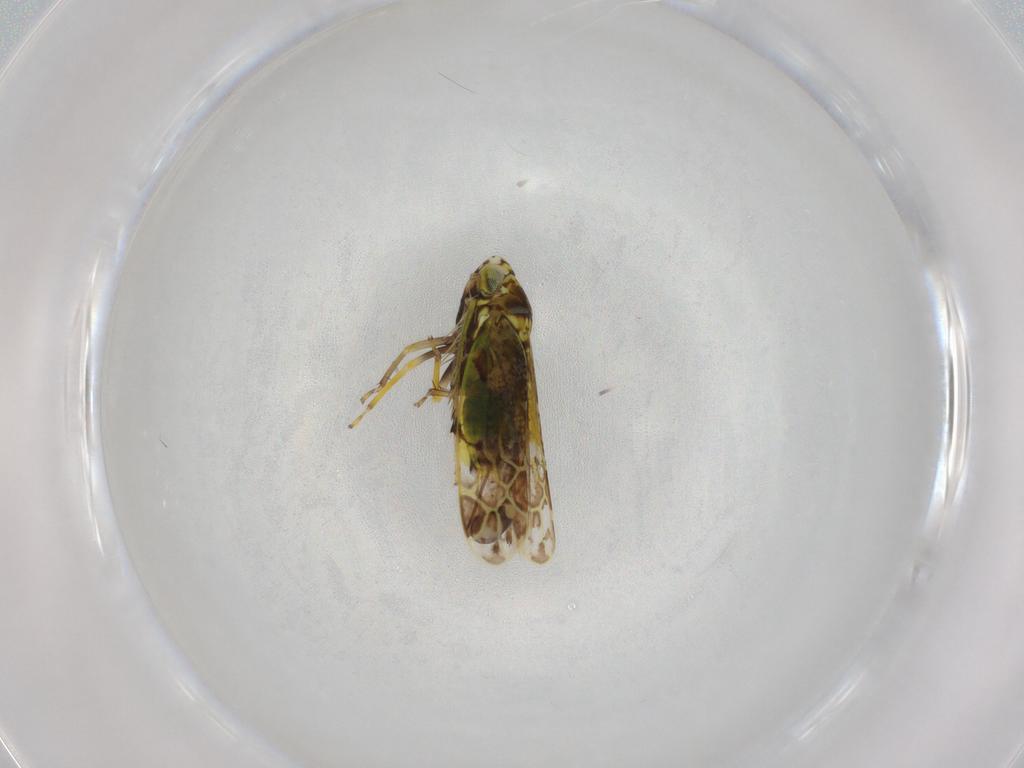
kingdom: Animalia
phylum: Arthropoda
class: Insecta
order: Hemiptera
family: Cicadellidae
